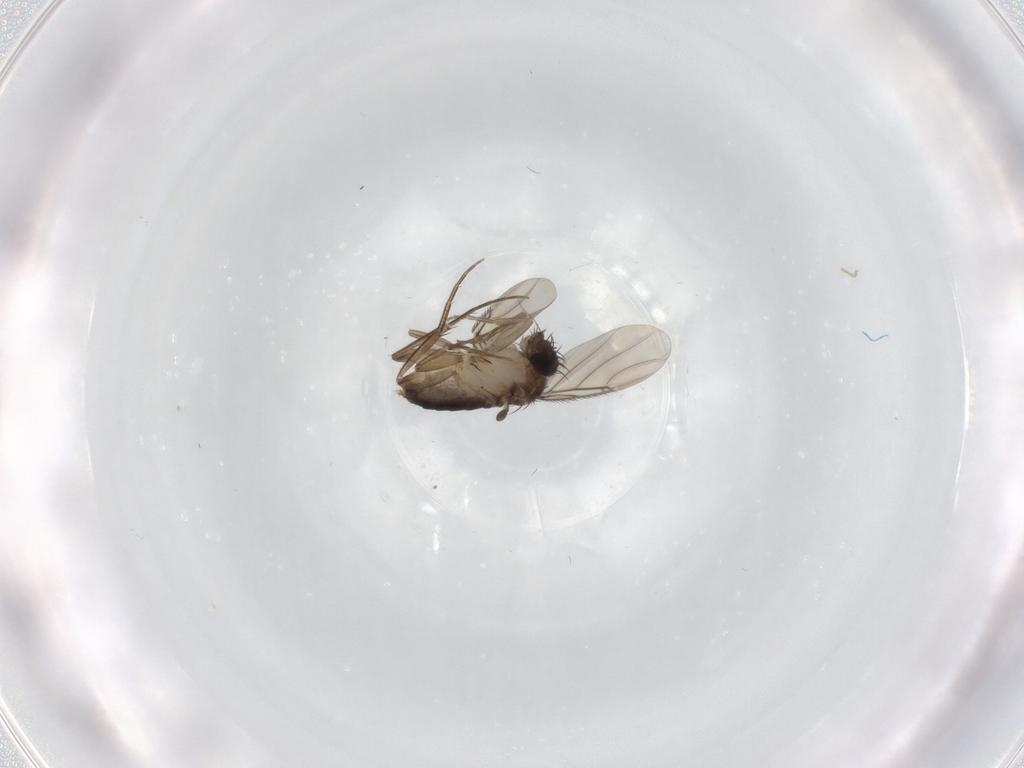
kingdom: Animalia
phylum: Arthropoda
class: Insecta
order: Diptera
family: Phoridae
